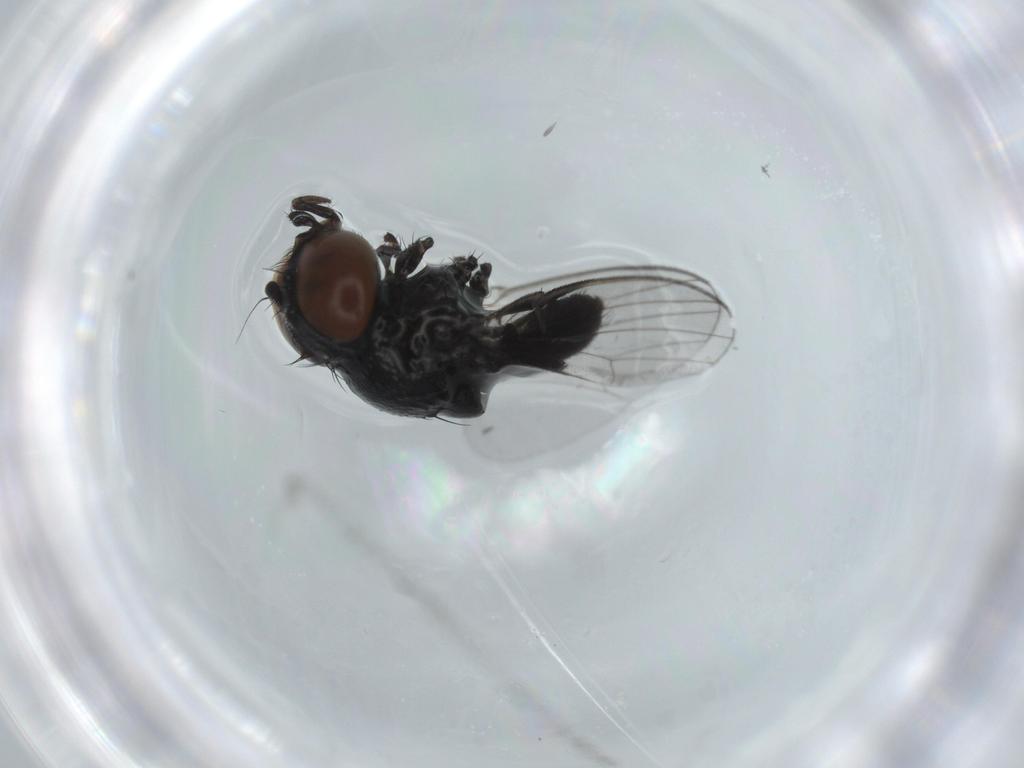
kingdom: Animalia
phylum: Arthropoda
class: Insecta
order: Diptera
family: Milichiidae
